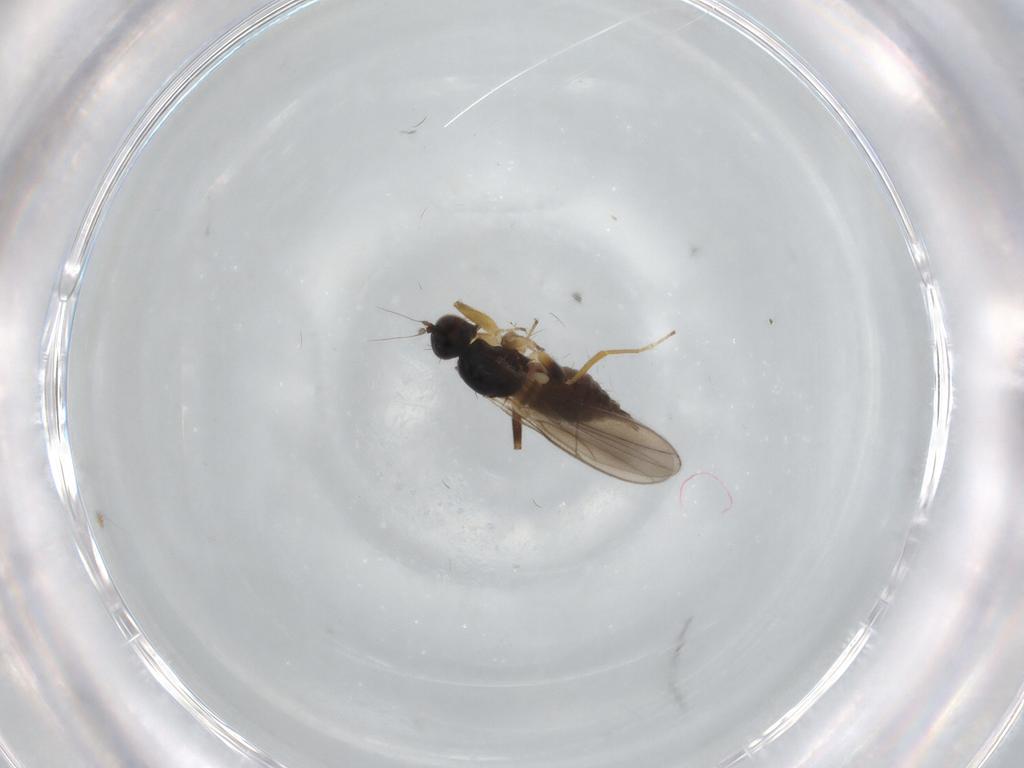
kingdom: Animalia
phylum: Arthropoda
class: Insecta
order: Diptera
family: Hybotidae
